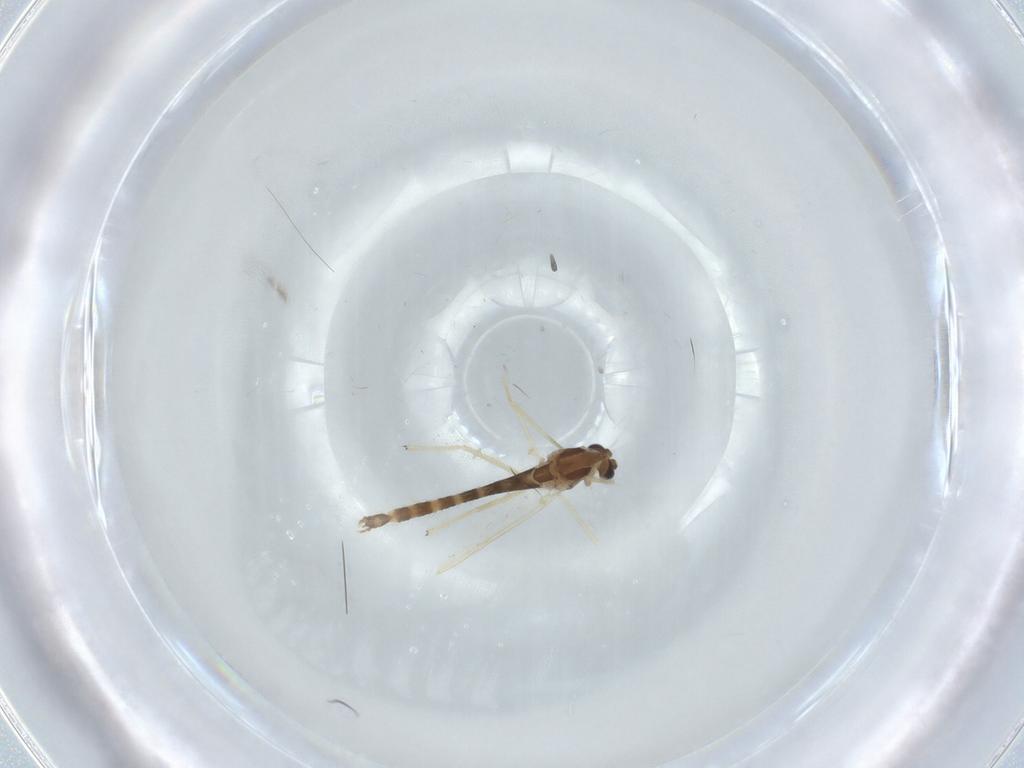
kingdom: Animalia
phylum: Arthropoda
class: Insecta
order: Diptera
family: Chironomidae
